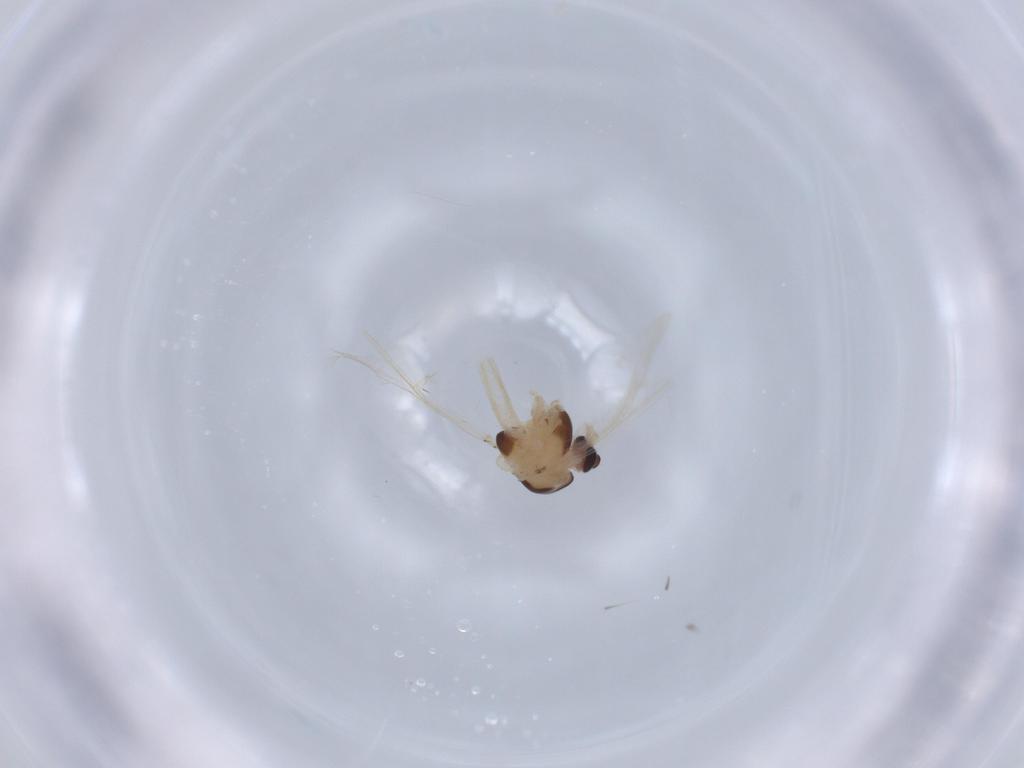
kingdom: Animalia
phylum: Arthropoda
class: Insecta
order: Diptera
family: Chironomidae
